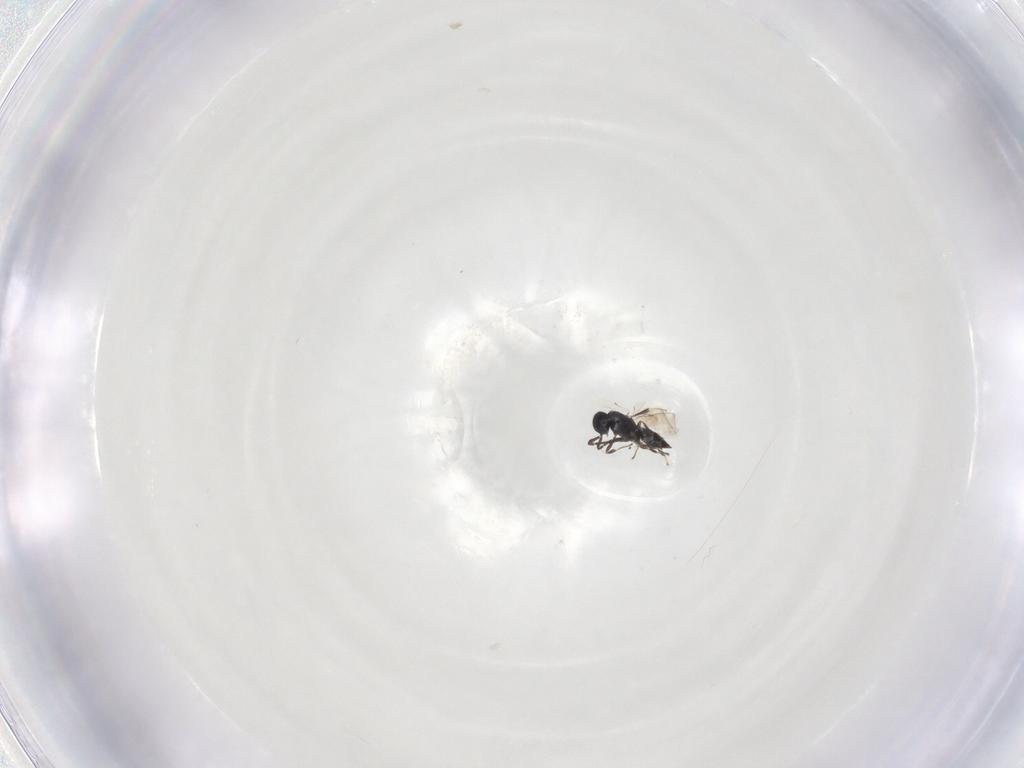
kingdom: Animalia
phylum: Arthropoda
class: Insecta
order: Hymenoptera
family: Scelionidae
